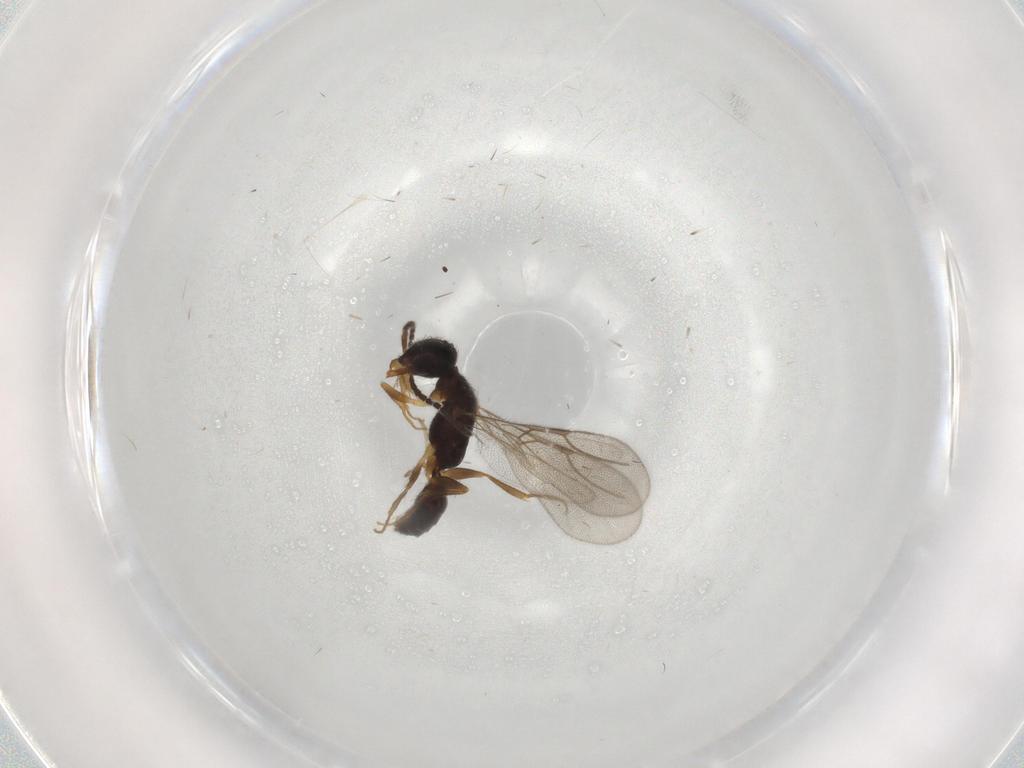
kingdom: Animalia
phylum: Arthropoda
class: Insecta
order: Hymenoptera
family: Bethylidae
